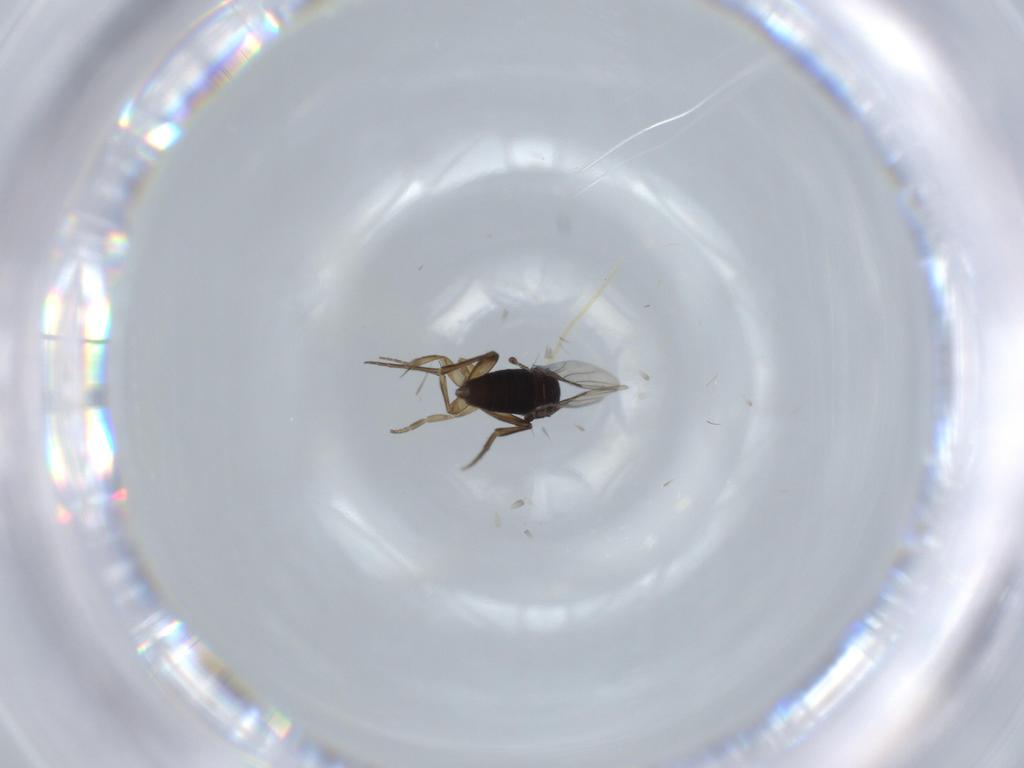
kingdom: Animalia
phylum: Arthropoda
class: Insecta
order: Diptera
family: Phoridae
